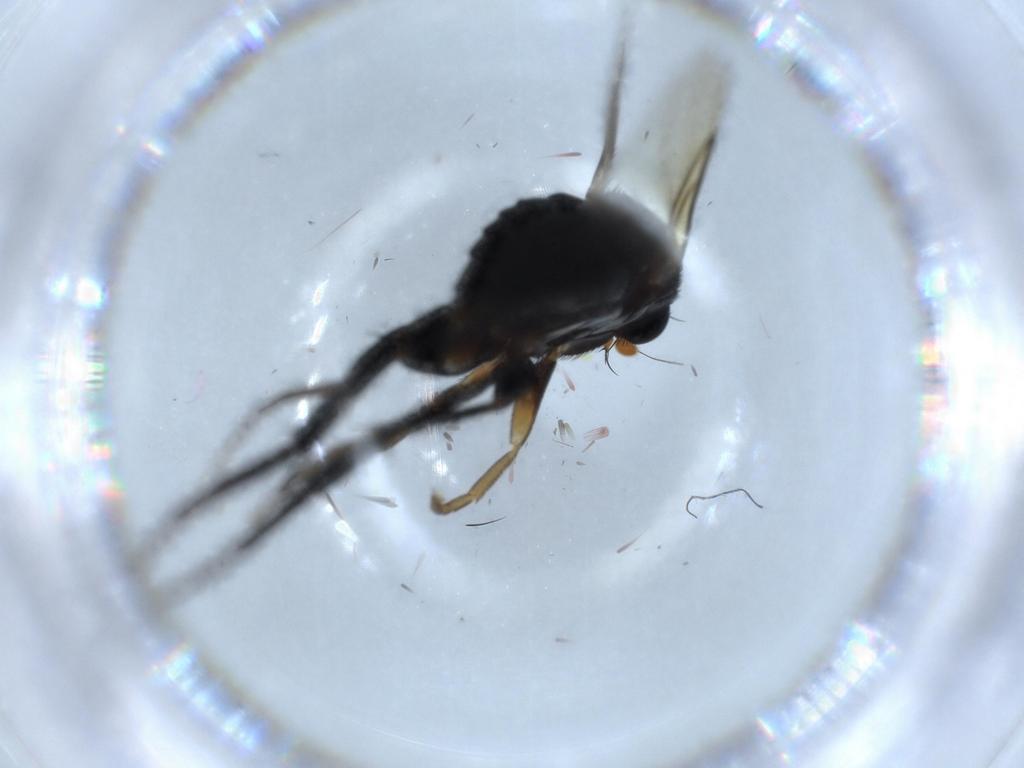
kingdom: Animalia
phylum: Arthropoda
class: Insecta
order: Diptera
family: Phoridae
